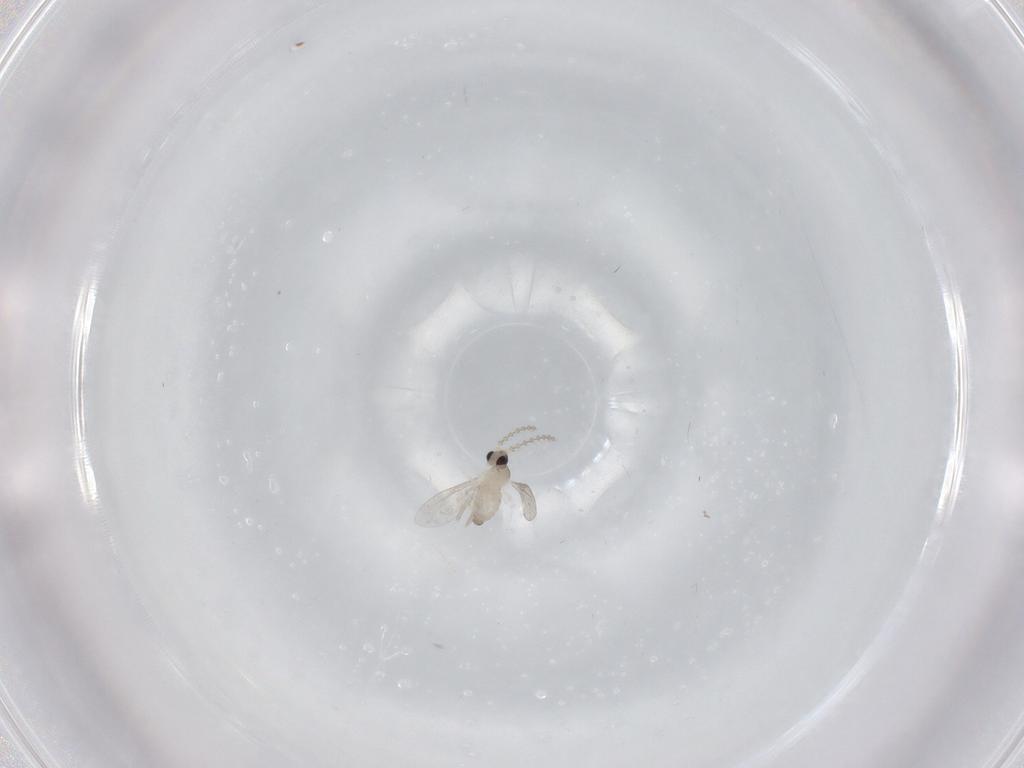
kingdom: Animalia
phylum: Arthropoda
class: Insecta
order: Diptera
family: Cecidomyiidae
